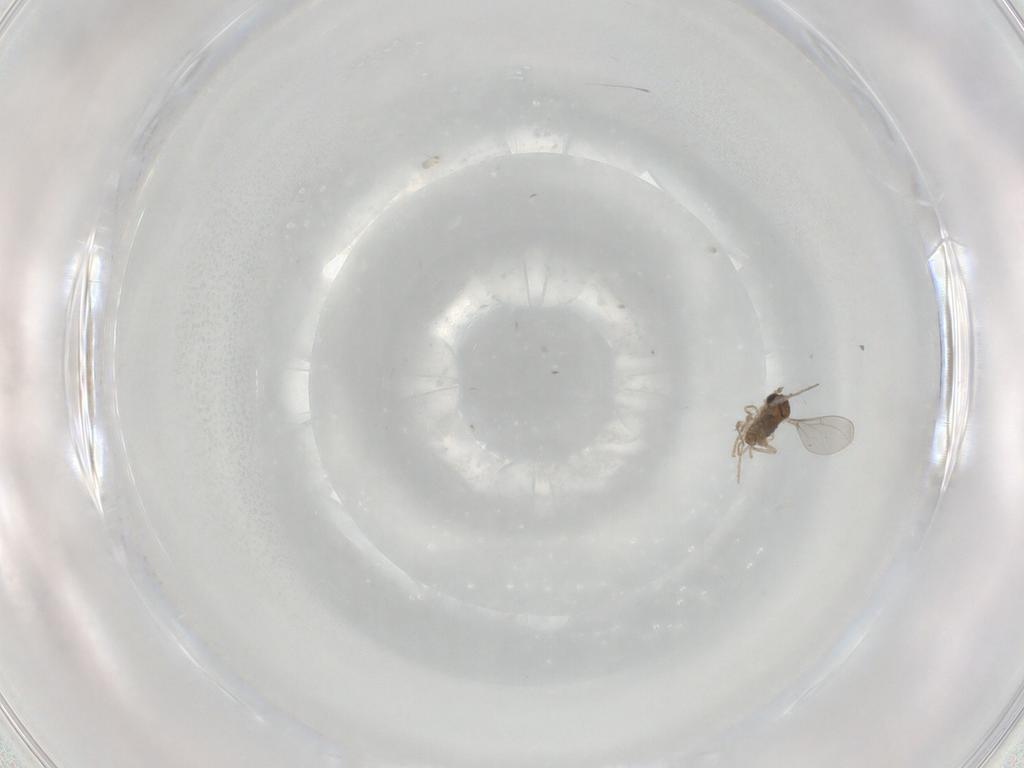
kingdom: Animalia
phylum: Arthropoda
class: Insecta
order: Diptera
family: Cecidomyiidae
